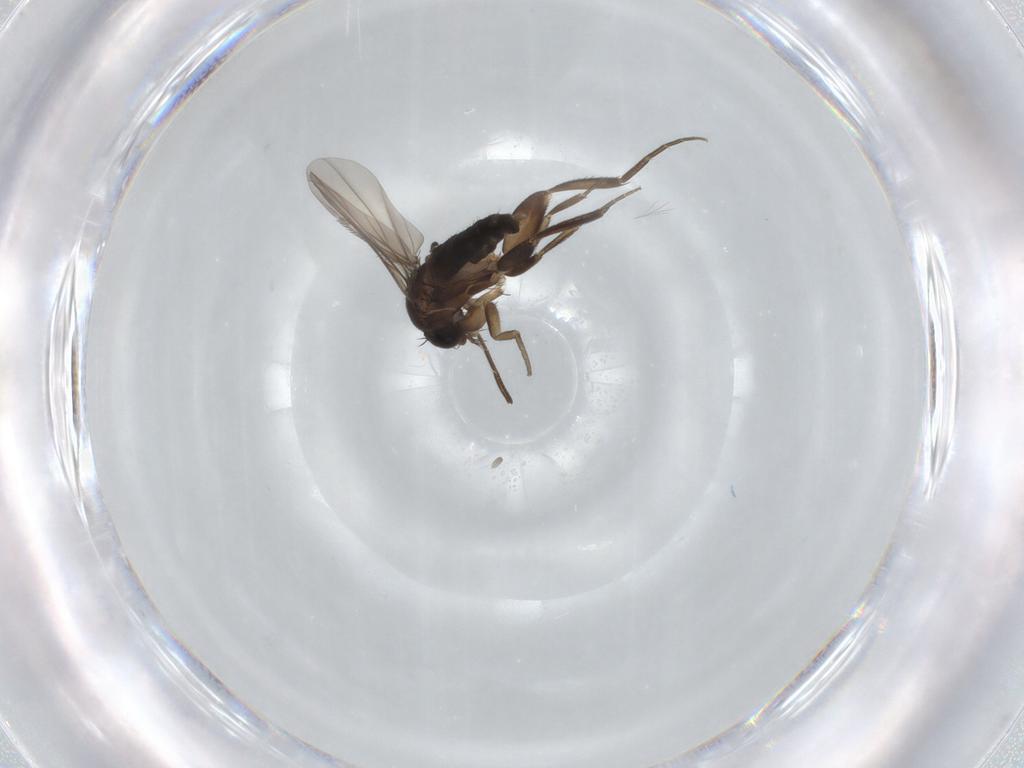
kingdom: Animalia
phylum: Arthropoda
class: Insecta
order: Diptera
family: Phoridae
